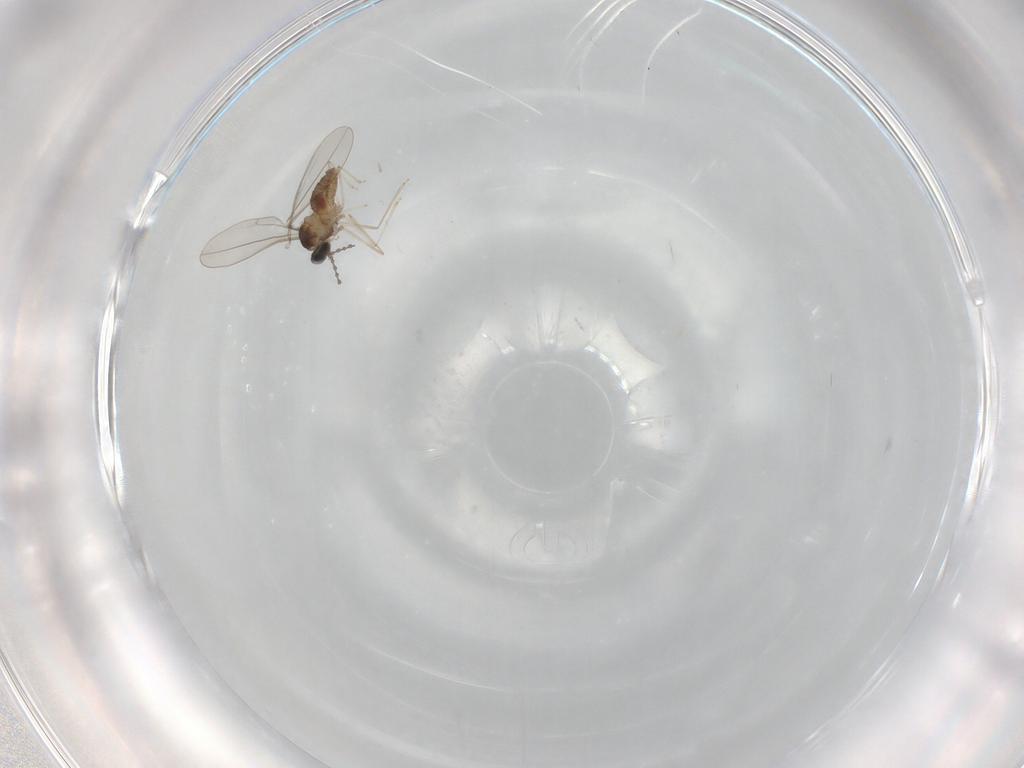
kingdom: Animalia
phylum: Arthropoda
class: Insecta
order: Diptera
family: Cecidomyiidae
